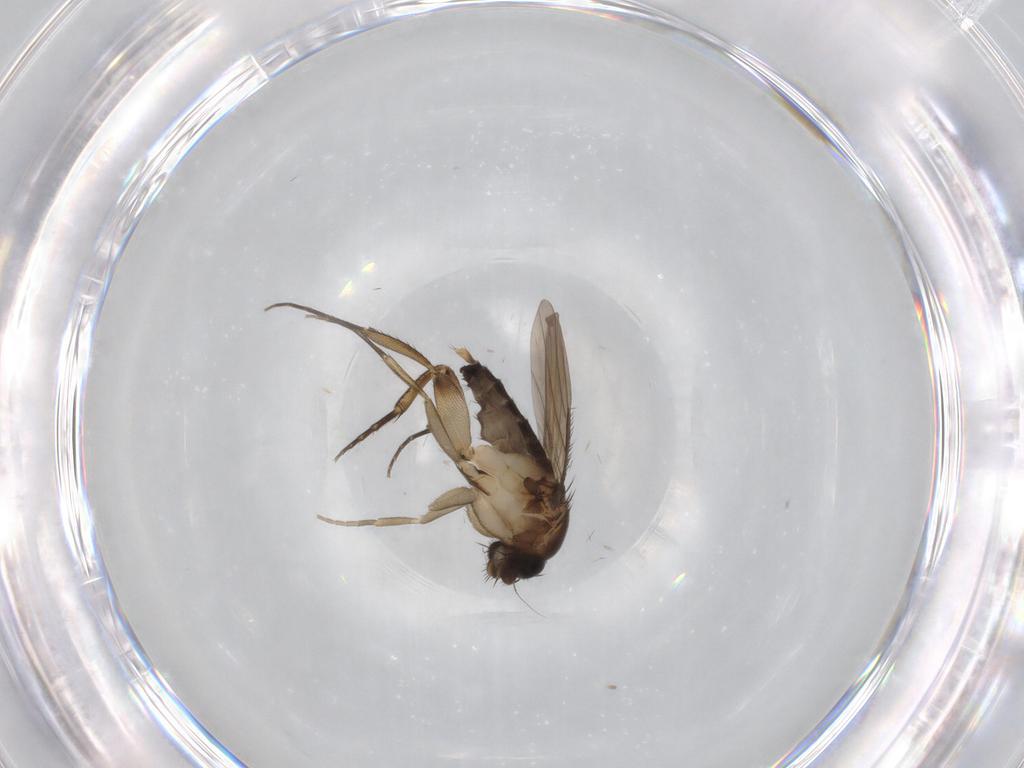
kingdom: Animalia
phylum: Arthropoda
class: Insecta
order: Diptera
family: Phoridae
